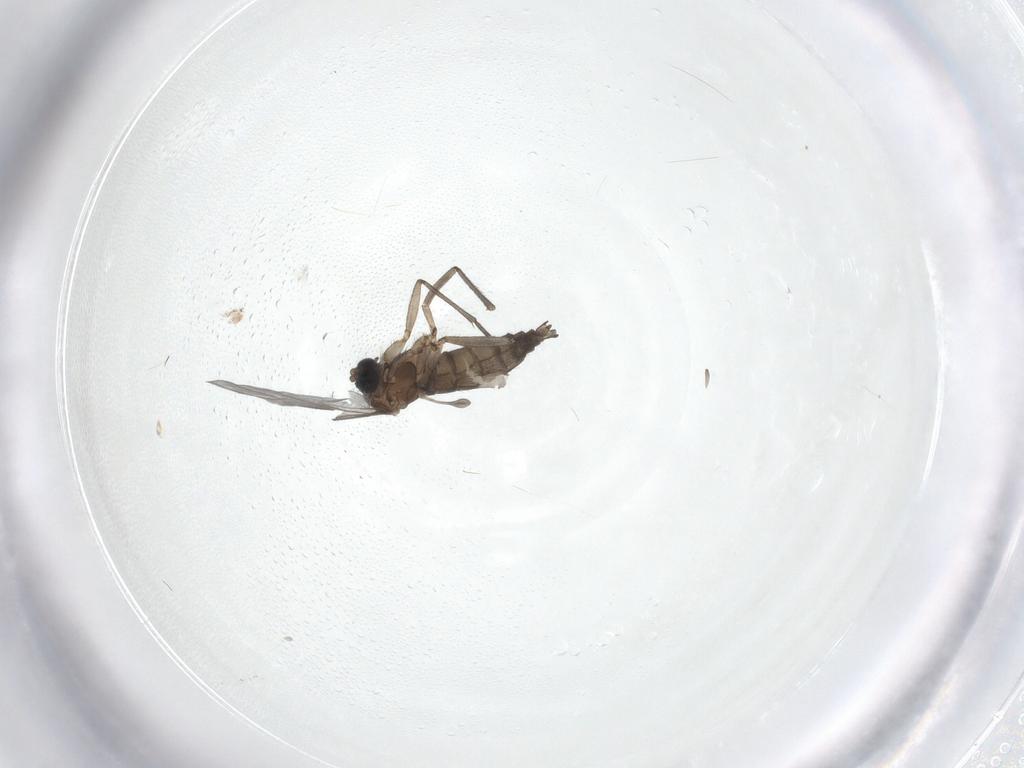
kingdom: Animalia
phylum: Arthropoda
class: Insecta
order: Diptera
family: Sciaridae
